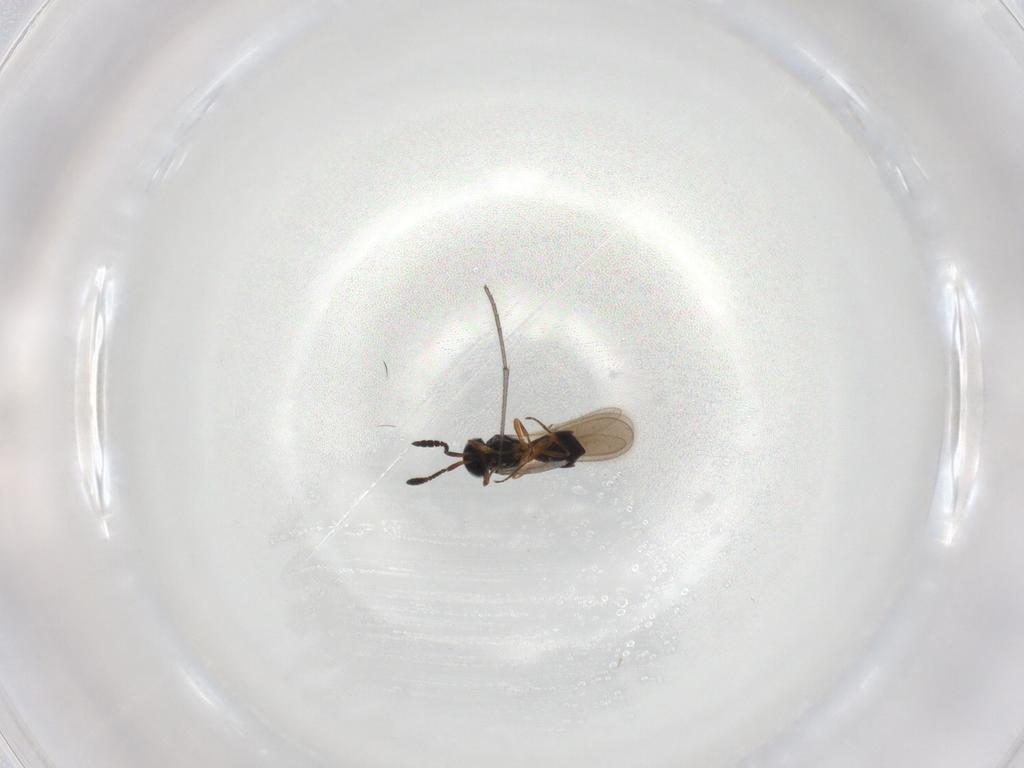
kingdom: Animalia
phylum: Arthropoda
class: Insecta
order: Hymenoptera
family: Scelionidae
